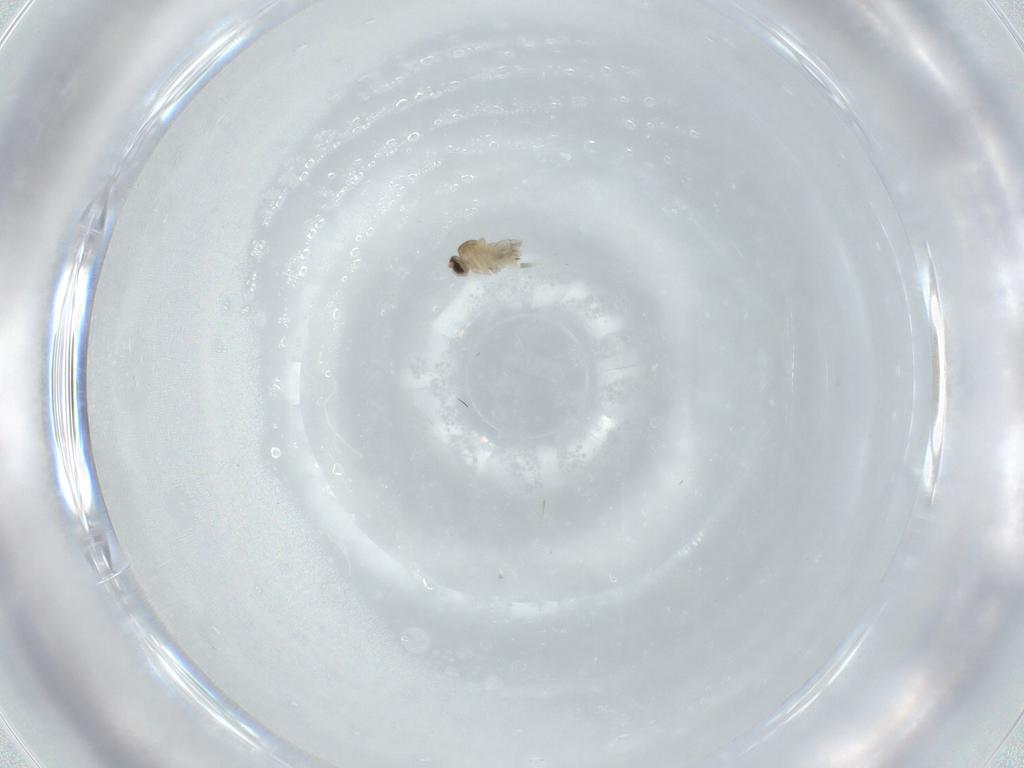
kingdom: Animalia
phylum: Arthropoda
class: Insecta
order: Diptera
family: Cecidomyiidae
